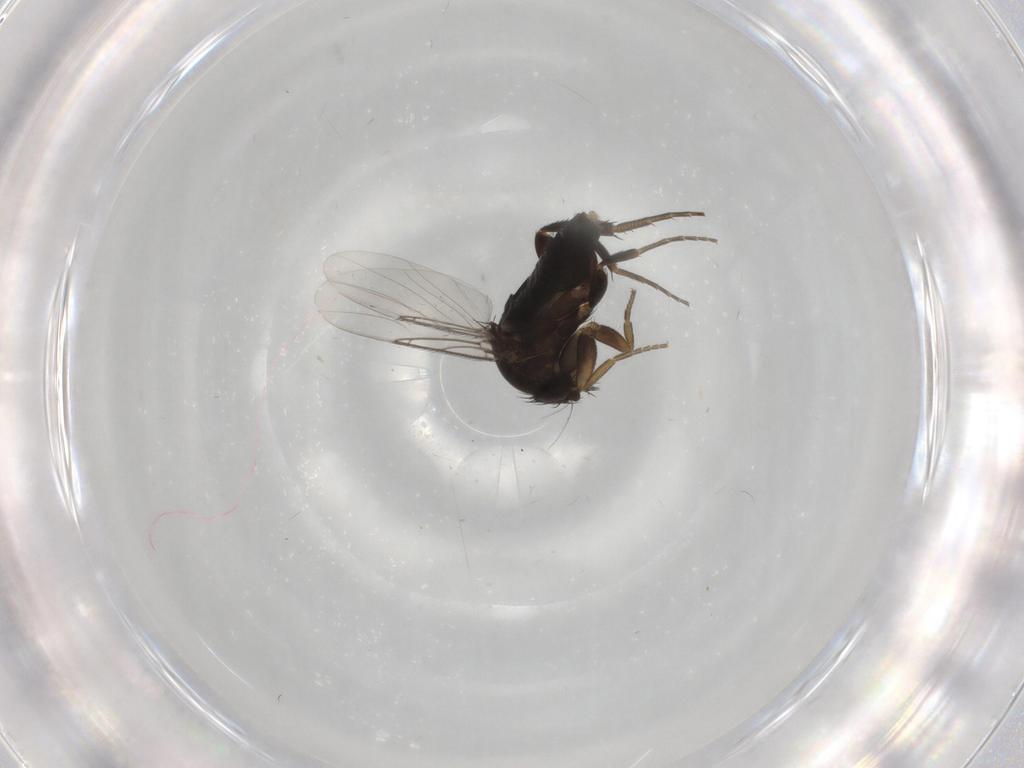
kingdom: Animalia
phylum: Arthropoda
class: Insecta
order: Diptera
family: Phoridae
